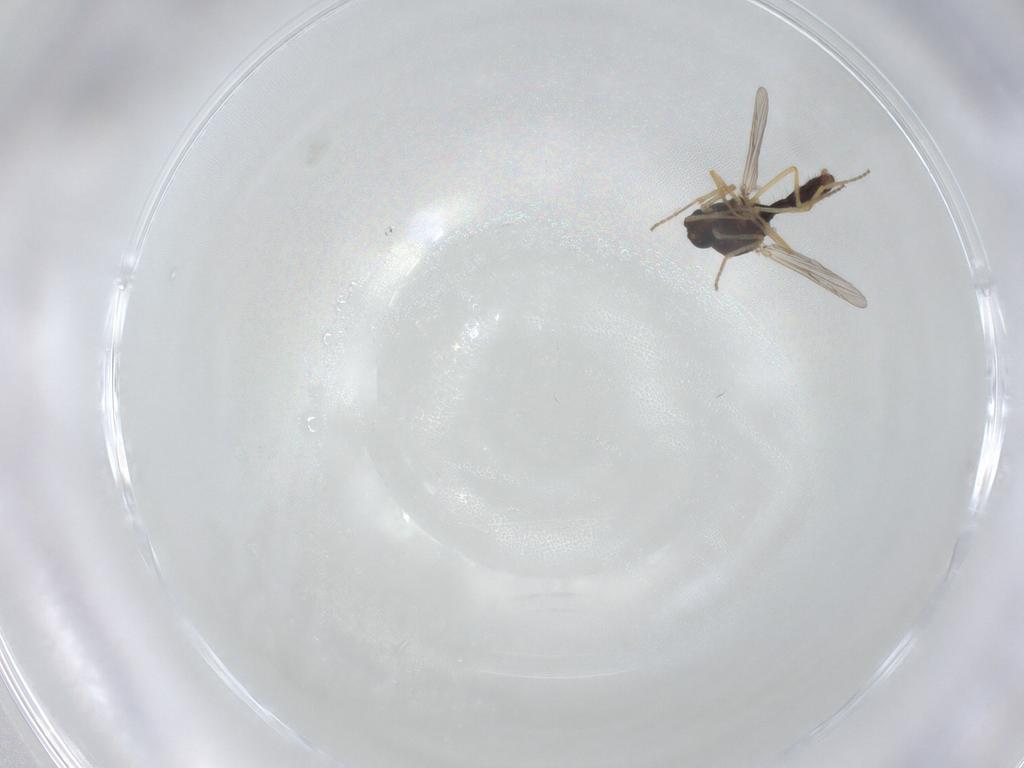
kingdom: Animalia
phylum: Arthropoda
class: Insecta
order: Diptera
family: Ceratopogonidae
